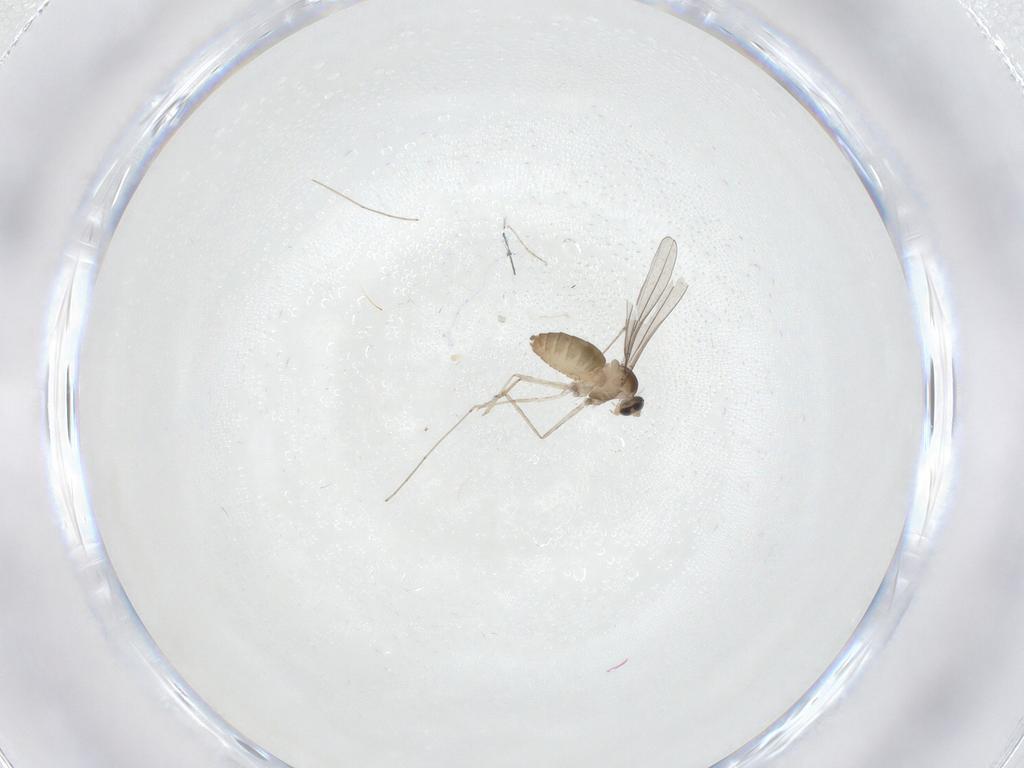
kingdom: Animalia
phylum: Arthropoda
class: Insecta
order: Diptera
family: Cecidomyiidae
